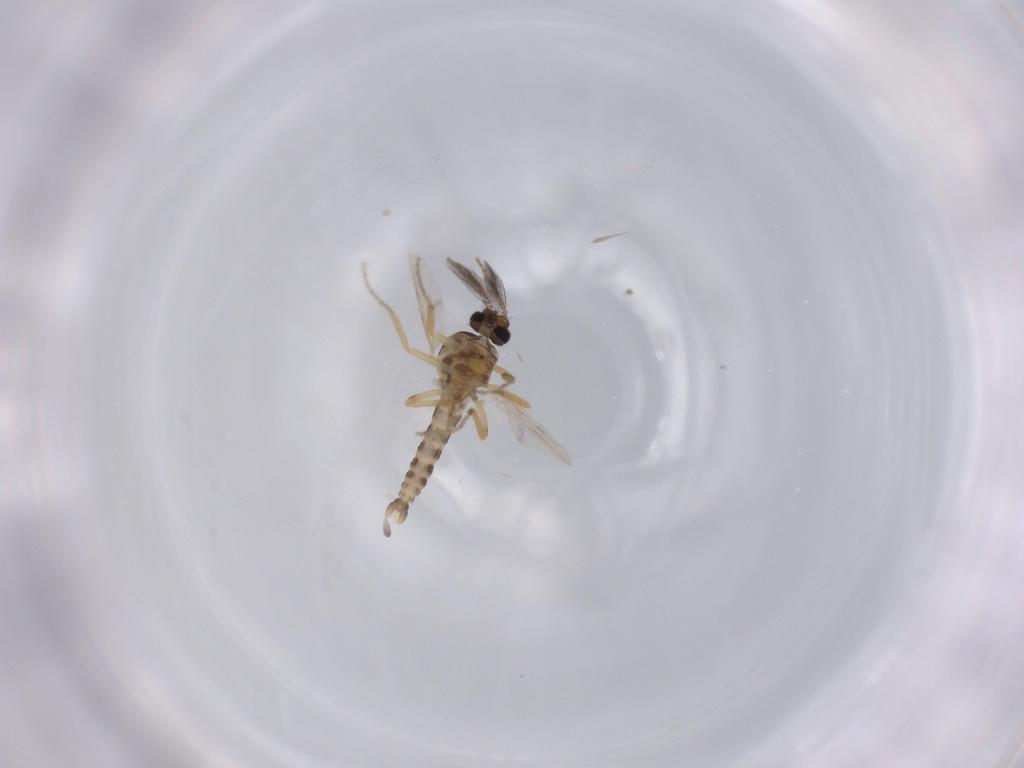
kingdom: Animalia
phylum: Arthropoda
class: Insecta
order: Diptera
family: Ceratopogonidae
